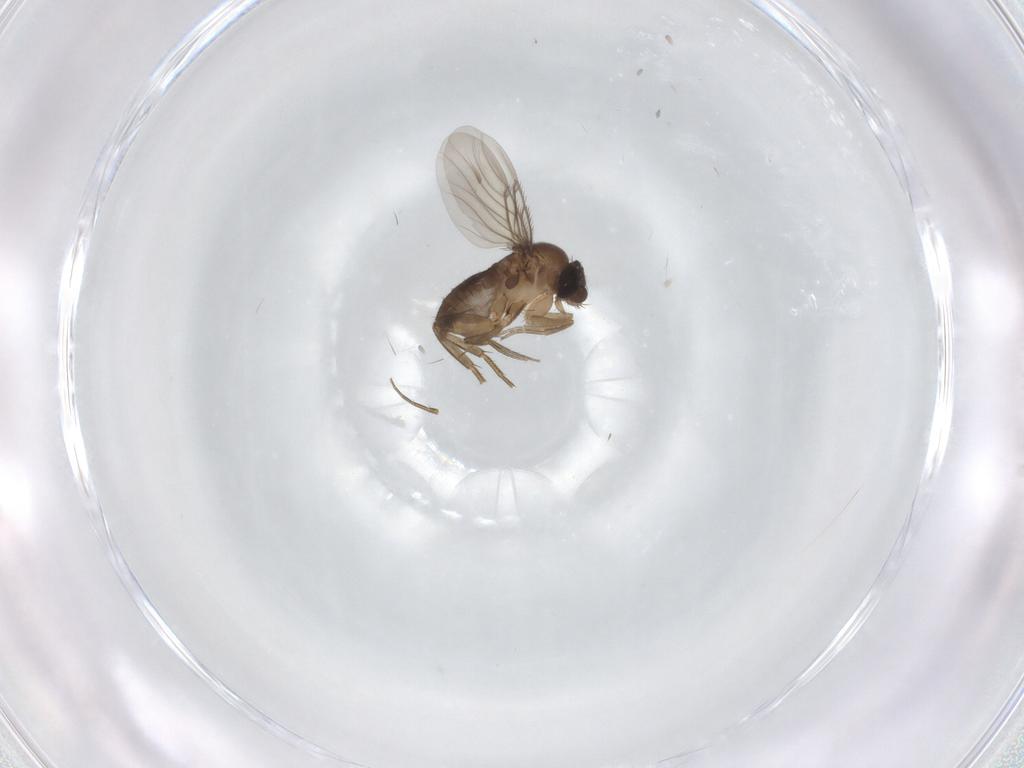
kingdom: Animalia
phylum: Arthropoda
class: Insecta
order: Diptera
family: Phoridae
